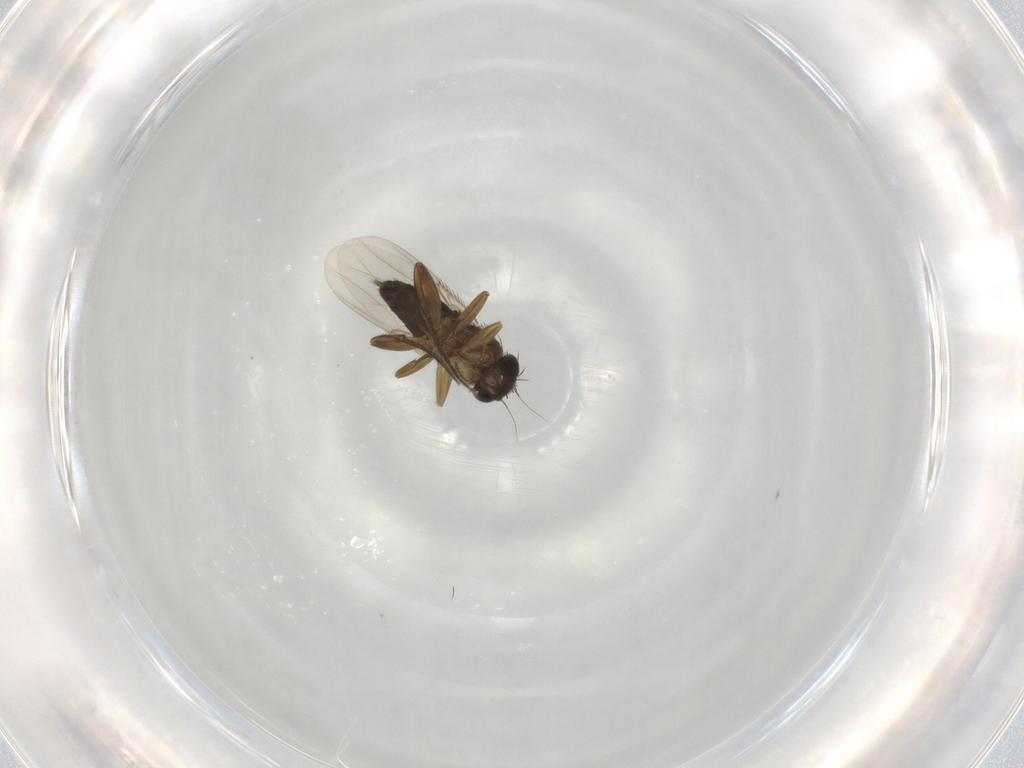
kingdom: Animalia
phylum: Arthropoda
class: Insecta
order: Diptera
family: Phoridae
